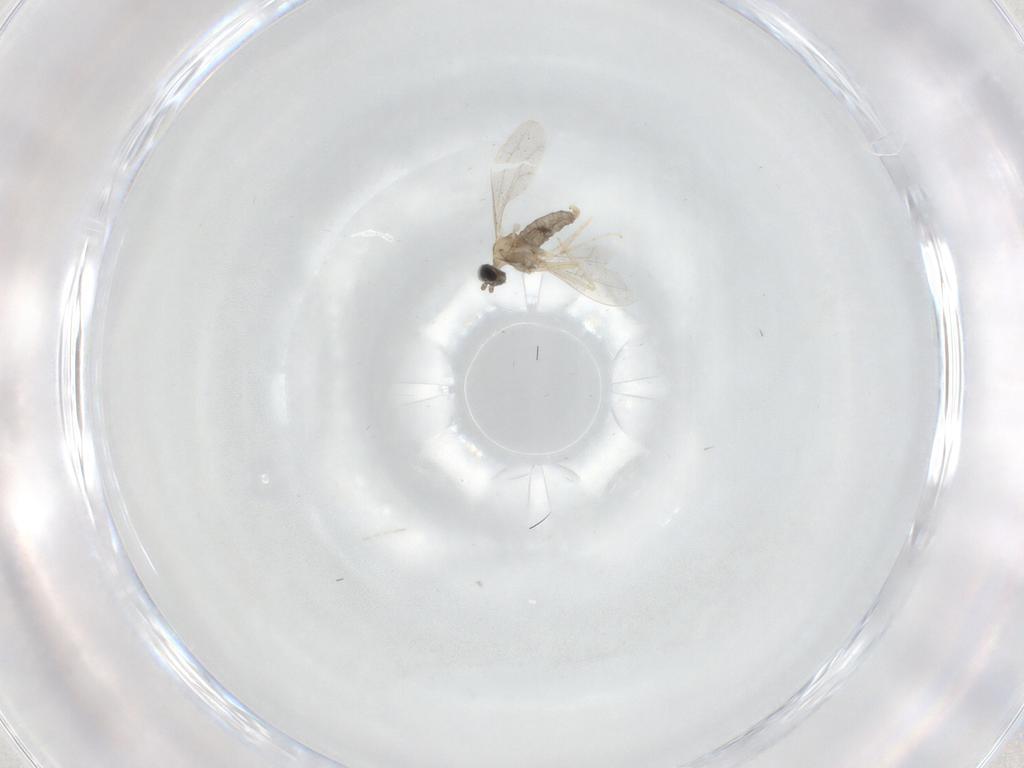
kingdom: Animalia
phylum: Arthropoda
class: Insecta
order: Diptera
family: Cecidomyiidae
